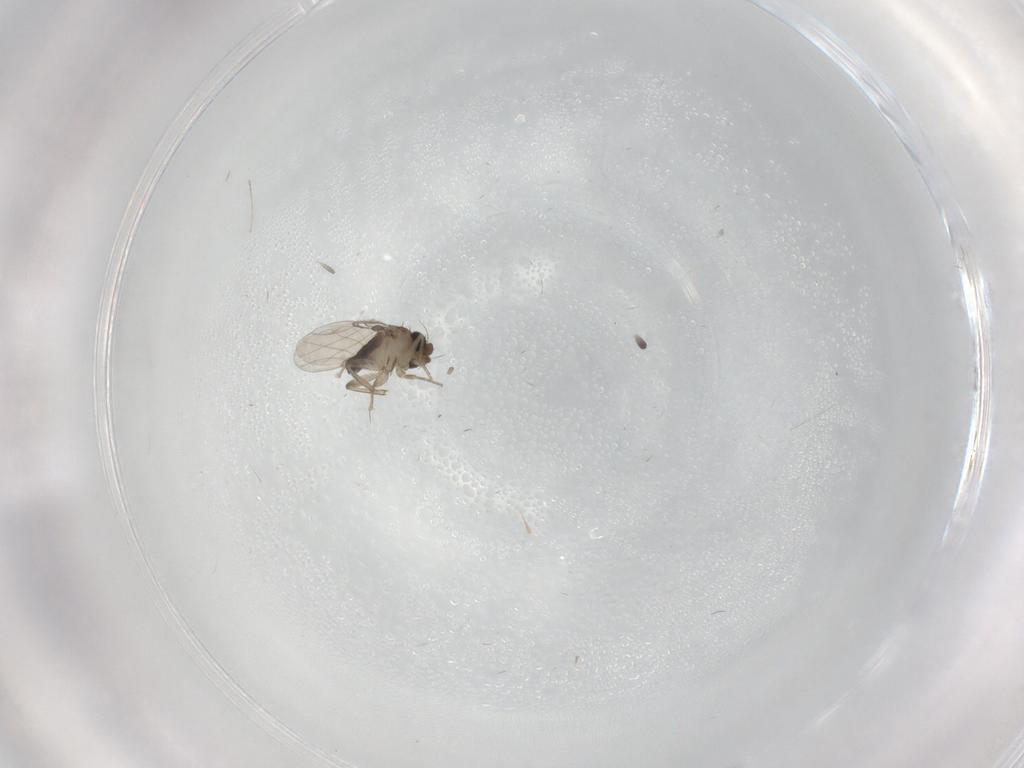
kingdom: Animalia
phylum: Arthropoda
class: Insecta
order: Diptera
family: Phoridae
